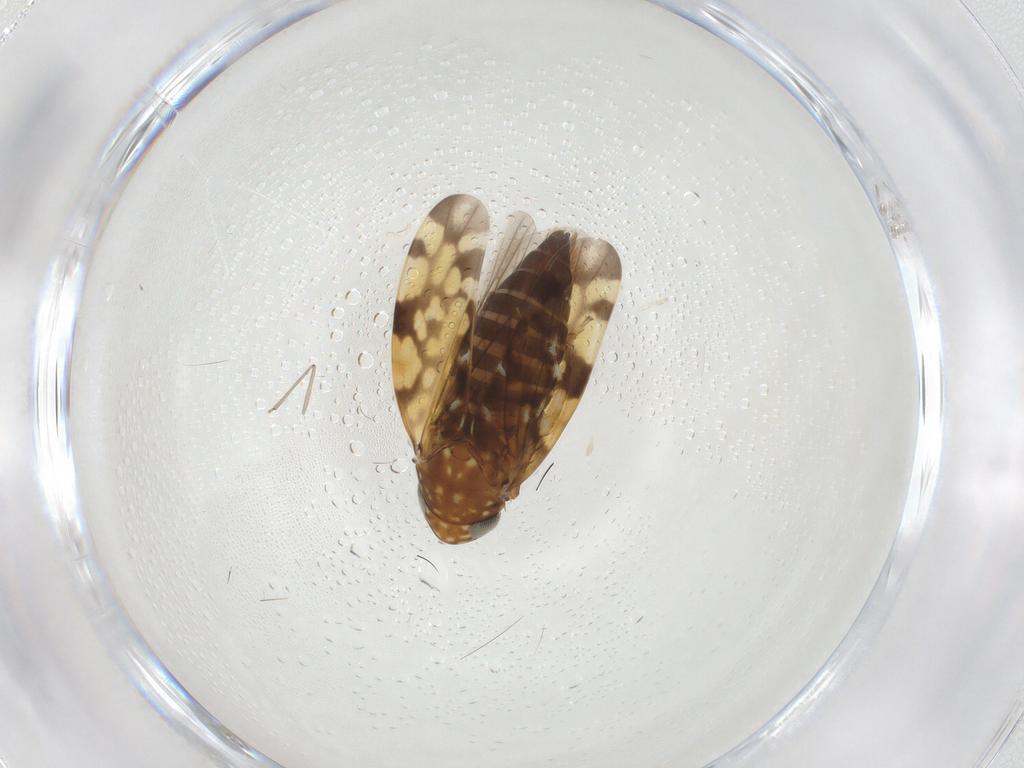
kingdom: Animalia
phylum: Arthropoda
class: Insecta
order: Hemiptera
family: Cicadellidae
